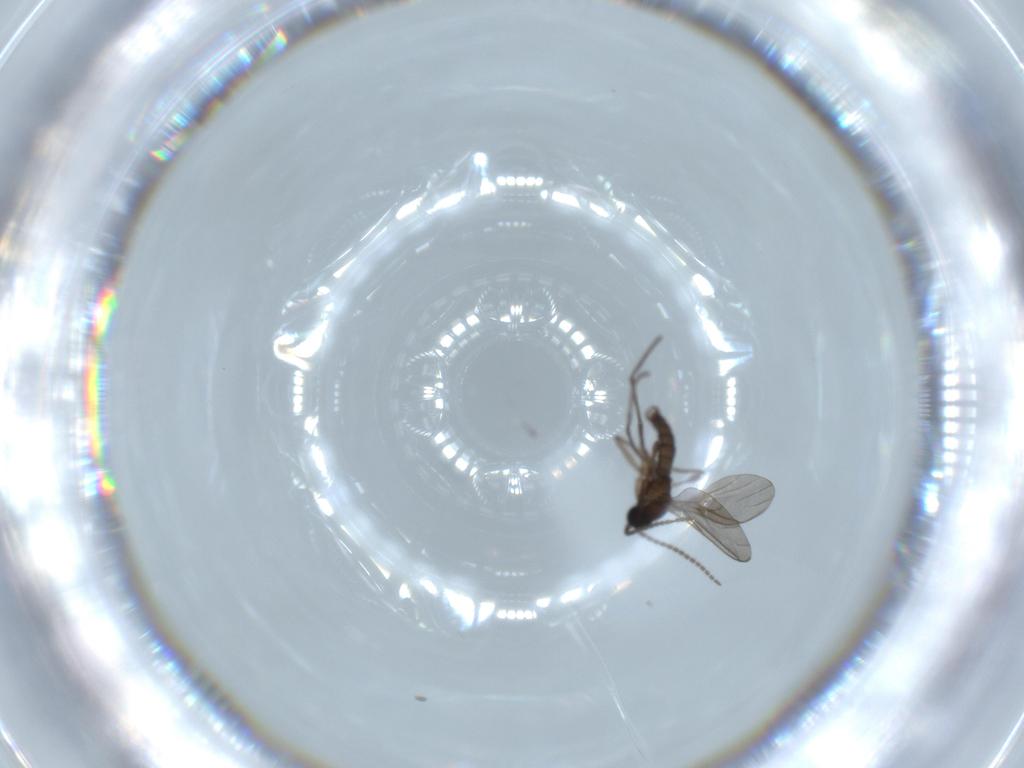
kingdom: Animalia
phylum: Arthropoda
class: Insecta
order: Diptera
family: Sciaridae
